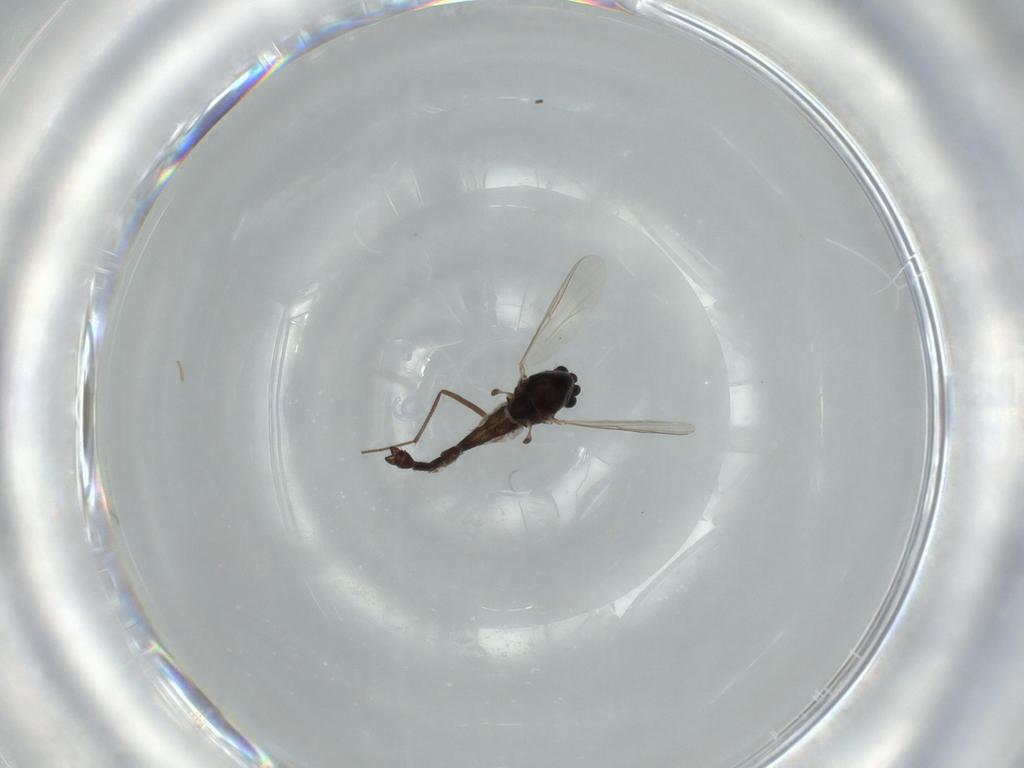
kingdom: Animalia
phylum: Arthropoda
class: Insecta
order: Diptera
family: Chironomidae
